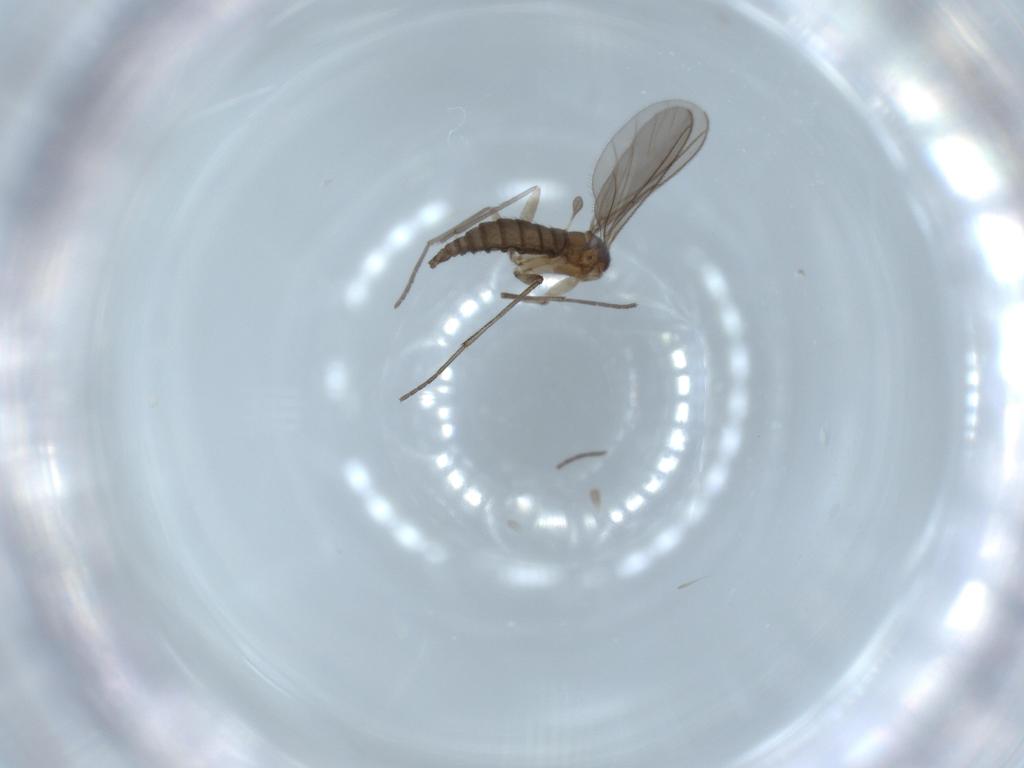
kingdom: Animalia
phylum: Arthropoda
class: Insecta
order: Diptera
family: Sciaridae
